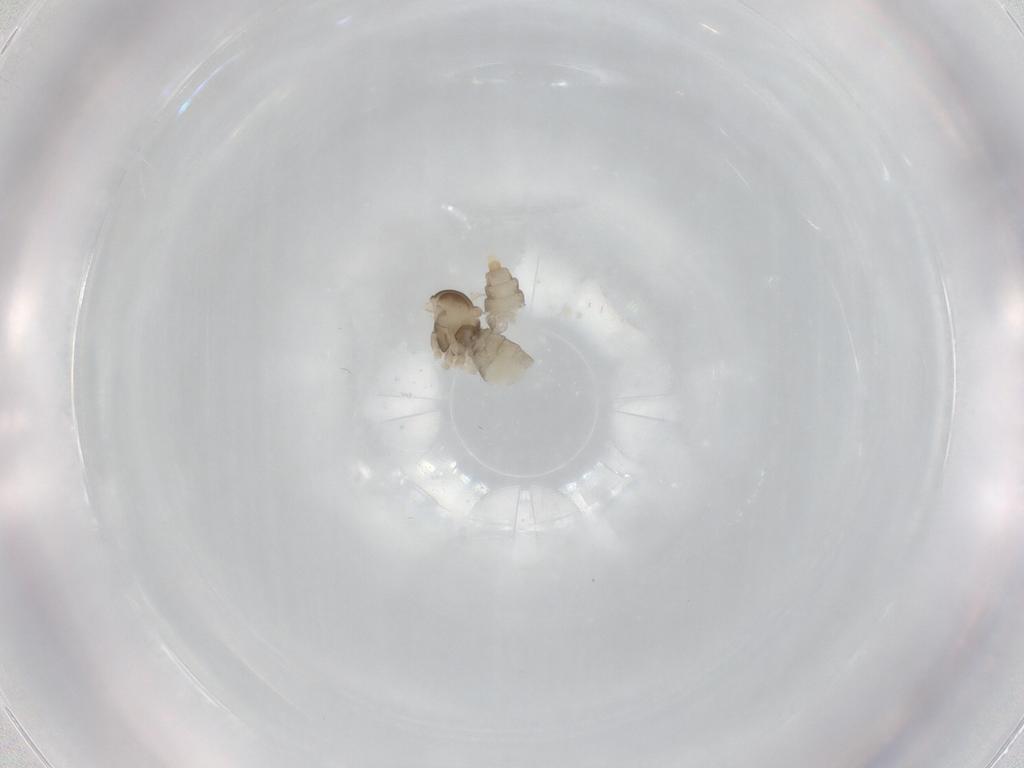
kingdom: Animalia
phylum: Arthropoda
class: Insecta
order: Diptera
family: Cecidomyiidae
